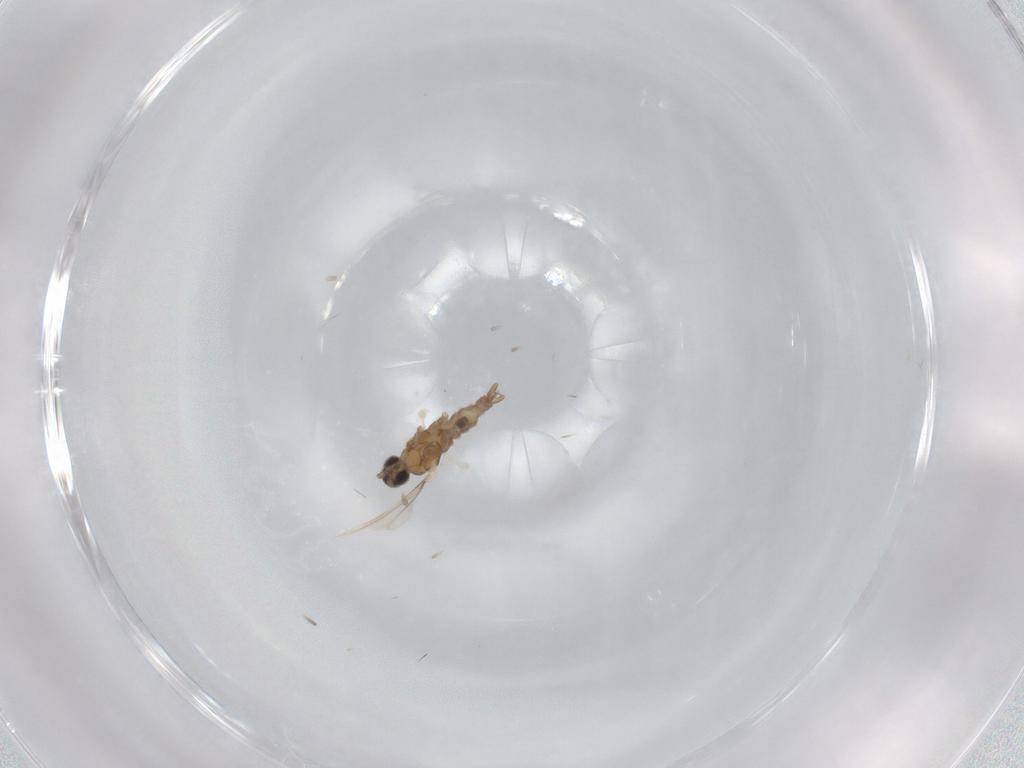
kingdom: Animalia
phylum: Arthropoda
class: Insecta
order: Diptera
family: Cecidomyiidae
